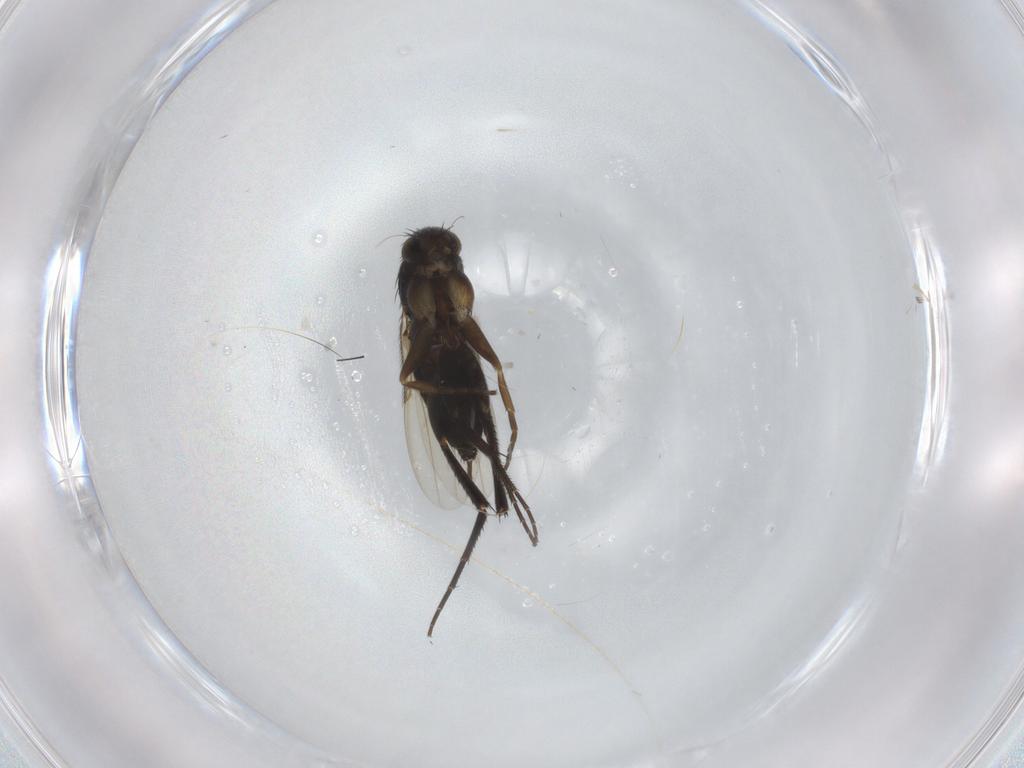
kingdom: Animalia
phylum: Arthropoda
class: Insecta
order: Diptera
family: Phoridae
